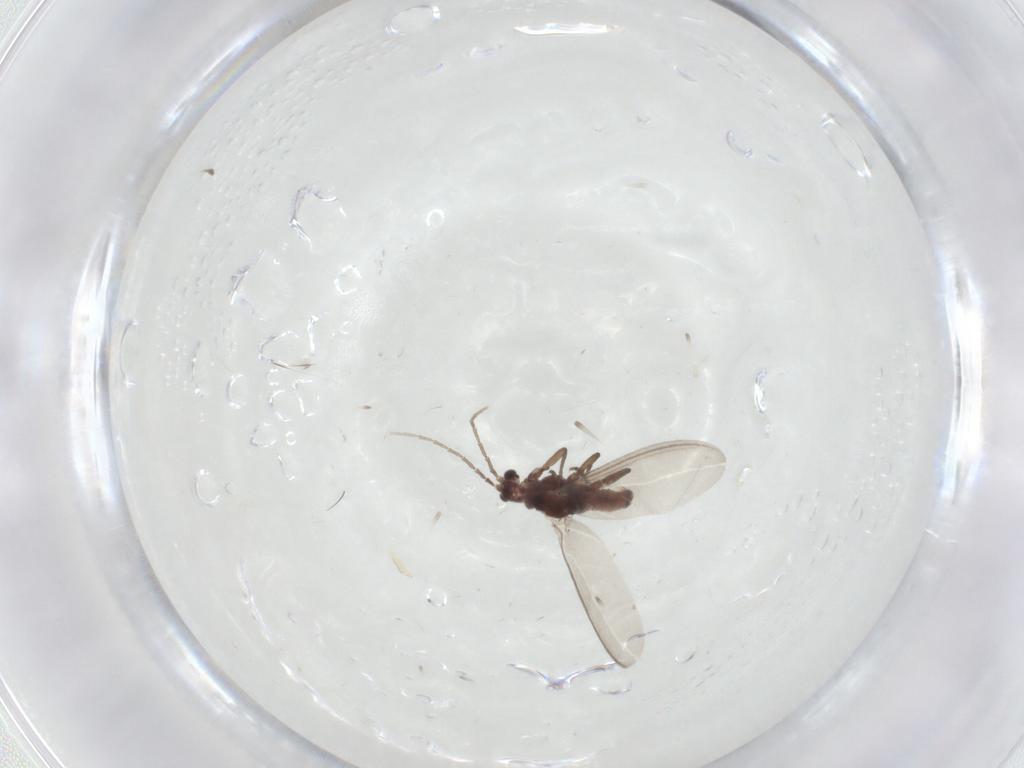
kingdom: Animalia
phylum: Arthropoda
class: Insecta
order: Hemiptera
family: Matsucoccidae
